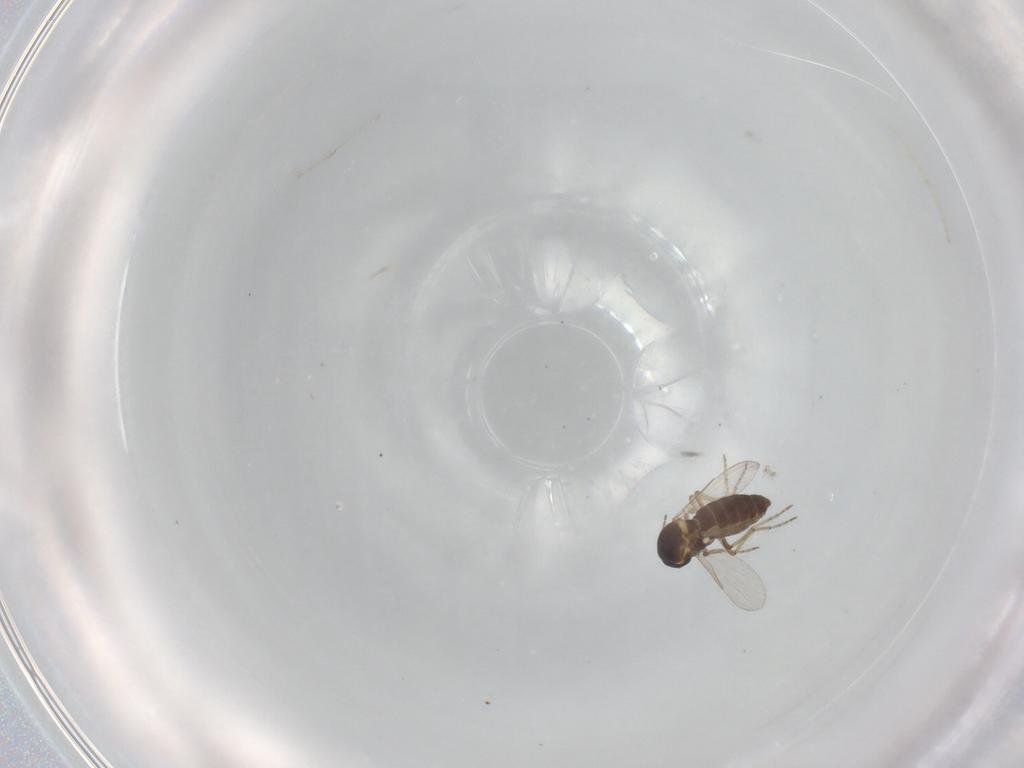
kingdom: Animalia
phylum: Arthropoda
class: Insecta
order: Diptera
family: Cecidomyiidae
